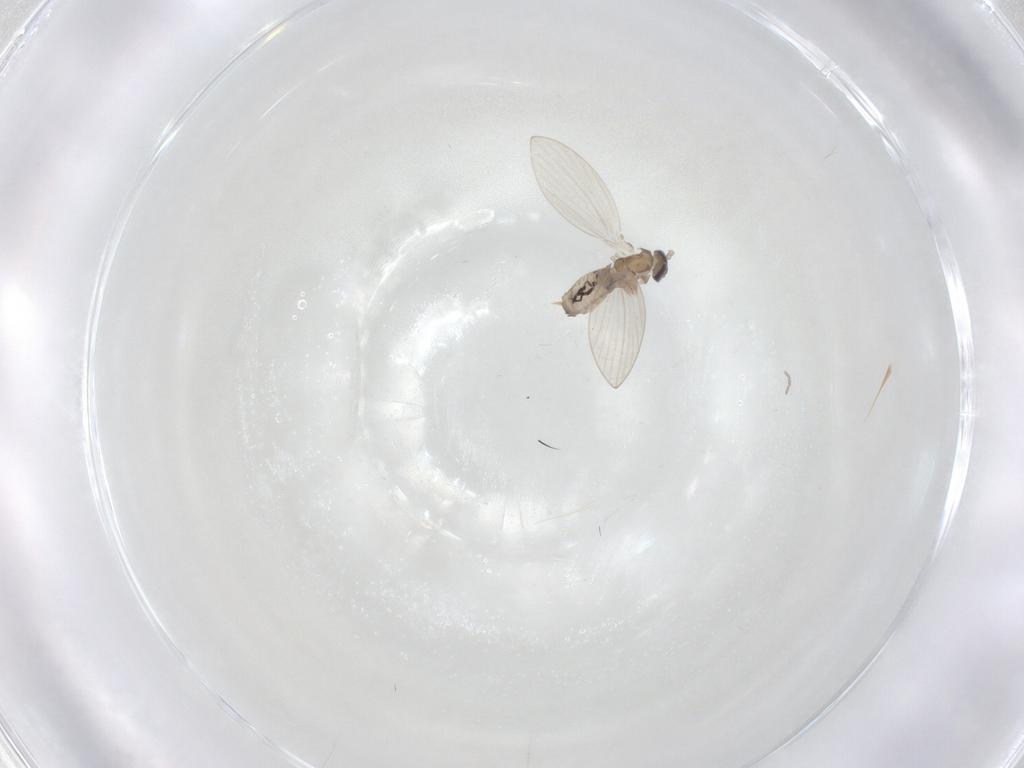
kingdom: Animalia
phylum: Arthropoda
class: Insecta
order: Diptera
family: Psychodidae
